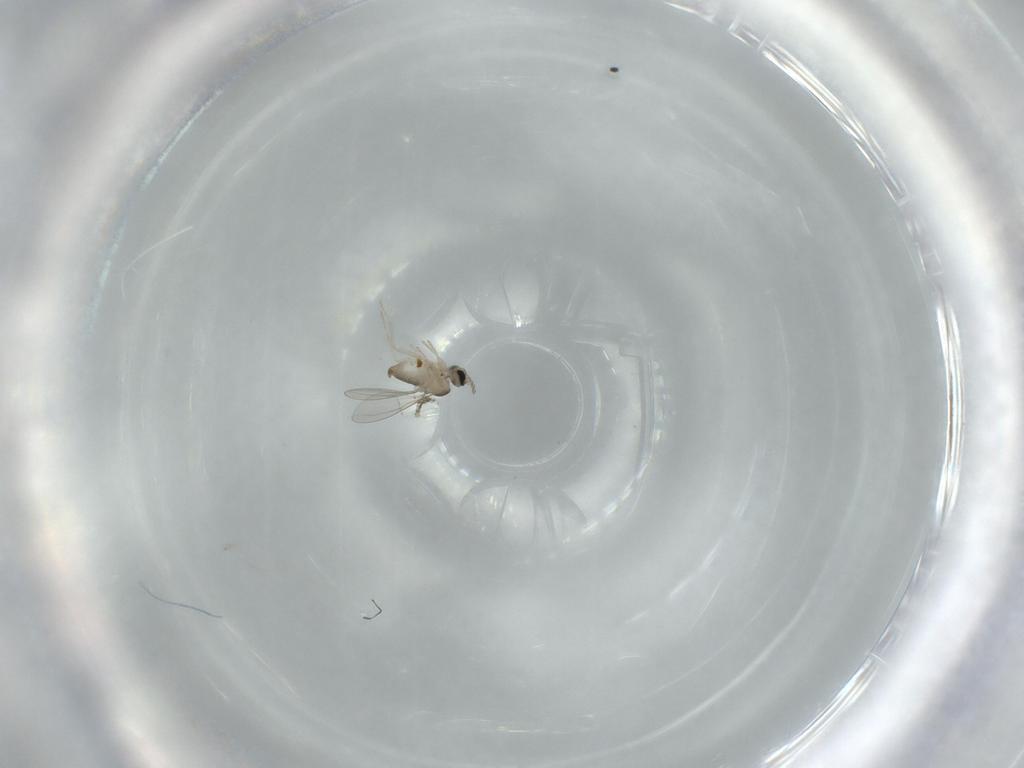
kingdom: Animalia
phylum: Arthropoda
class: Insecta
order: Diptera
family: Cecidomyiidae
